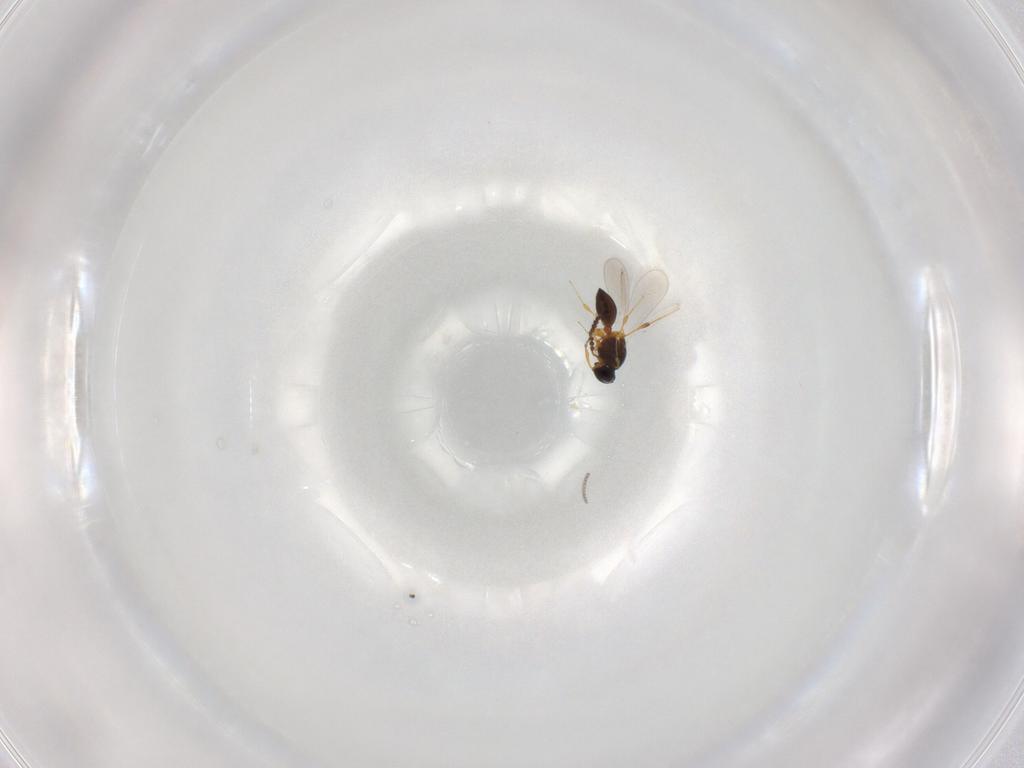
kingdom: Animalia
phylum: Arthropoda
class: Insecta
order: Hymenoptera
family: Platygastridae
